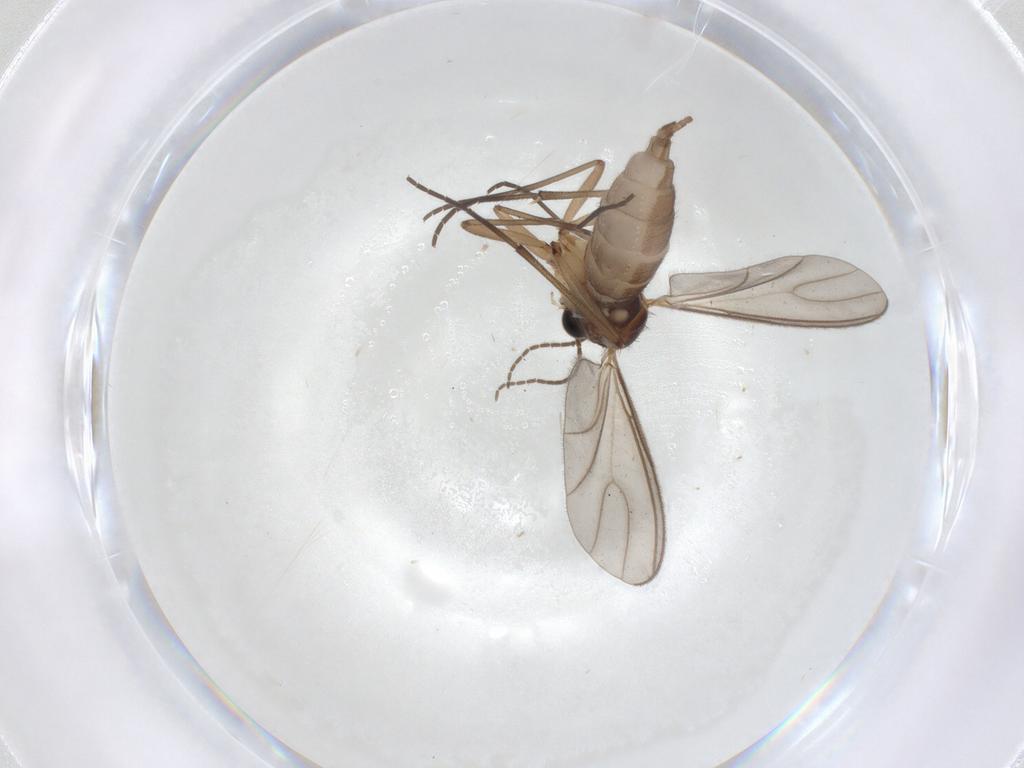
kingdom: Animalia
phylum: Arthropoda
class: Insecta
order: Diptera
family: Sciaridae
